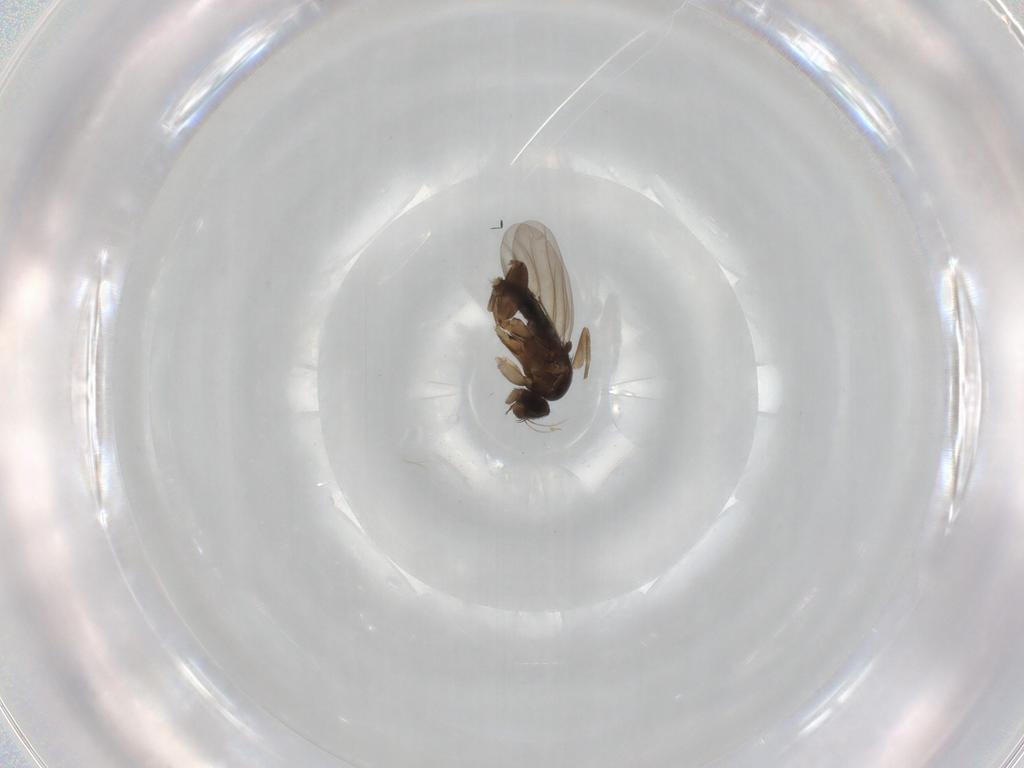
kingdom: Animalia
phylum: Arthropoda
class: Insecta
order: Diptera
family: Phoridae
